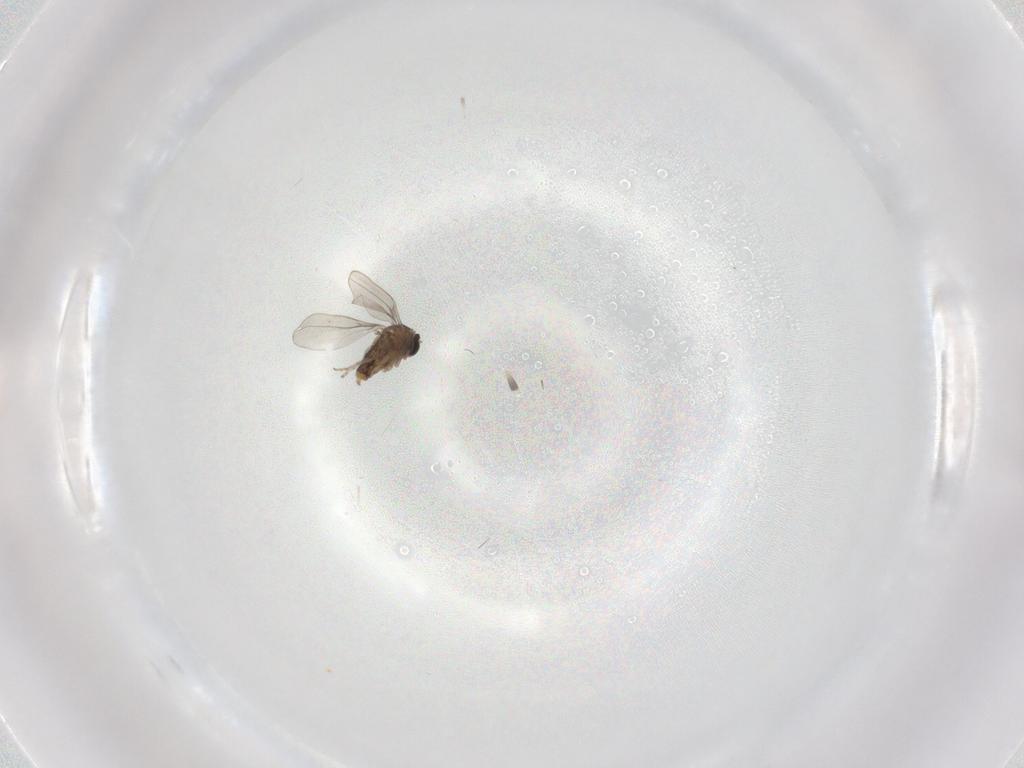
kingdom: Animalia
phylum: Arthropoda
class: Insecta
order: Diptera
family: Cecidomyiidae
